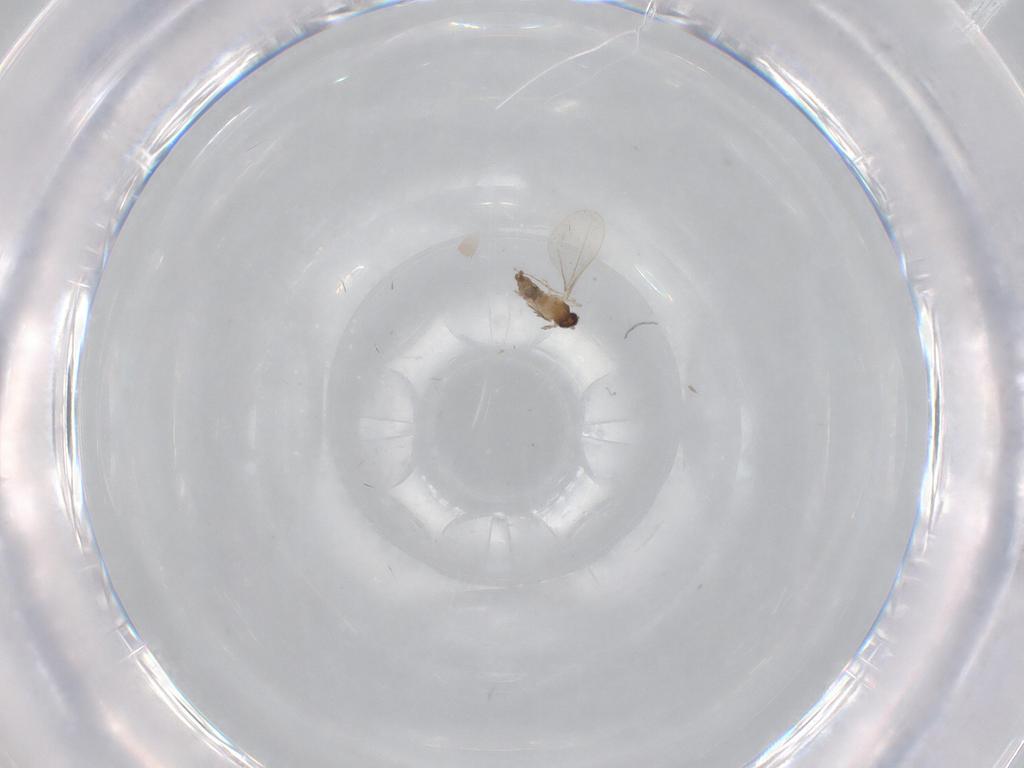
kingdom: Animalia
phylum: Arthropoda
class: Insecta
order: Diptera
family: Cecidomyiidae
